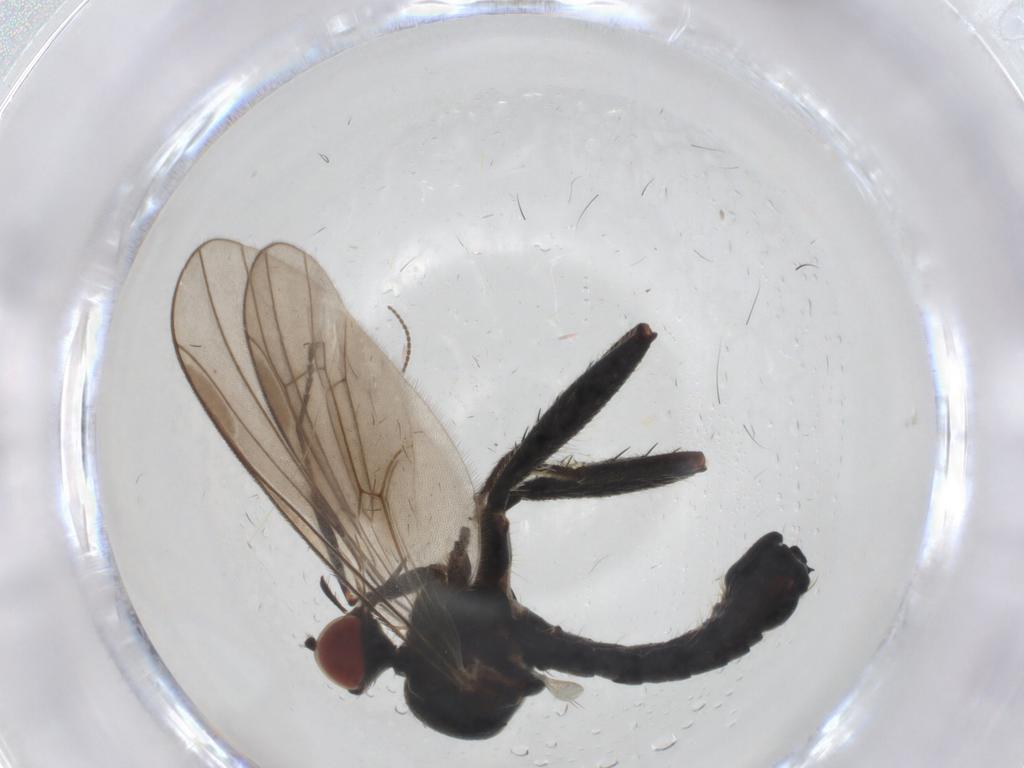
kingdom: Animalia
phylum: Arthropoda
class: Insecta
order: Diptera
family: Hybotidae
